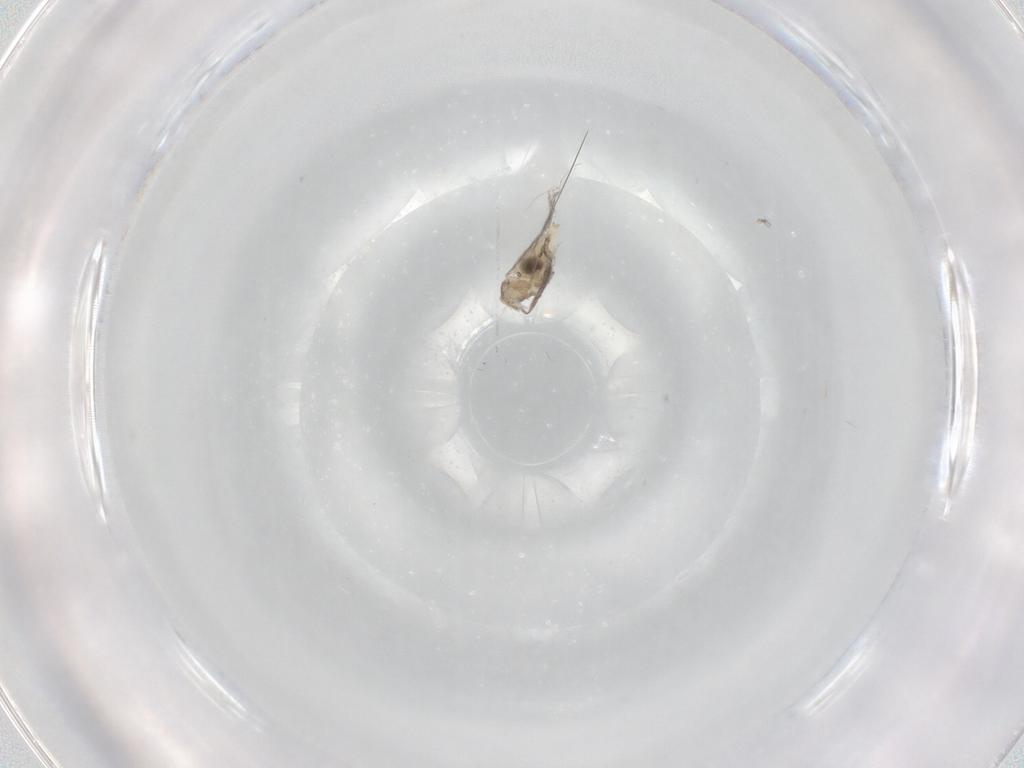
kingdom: Animalia
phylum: Arthropoda
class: Insecta
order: Diptera
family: Cecidomyiidae
